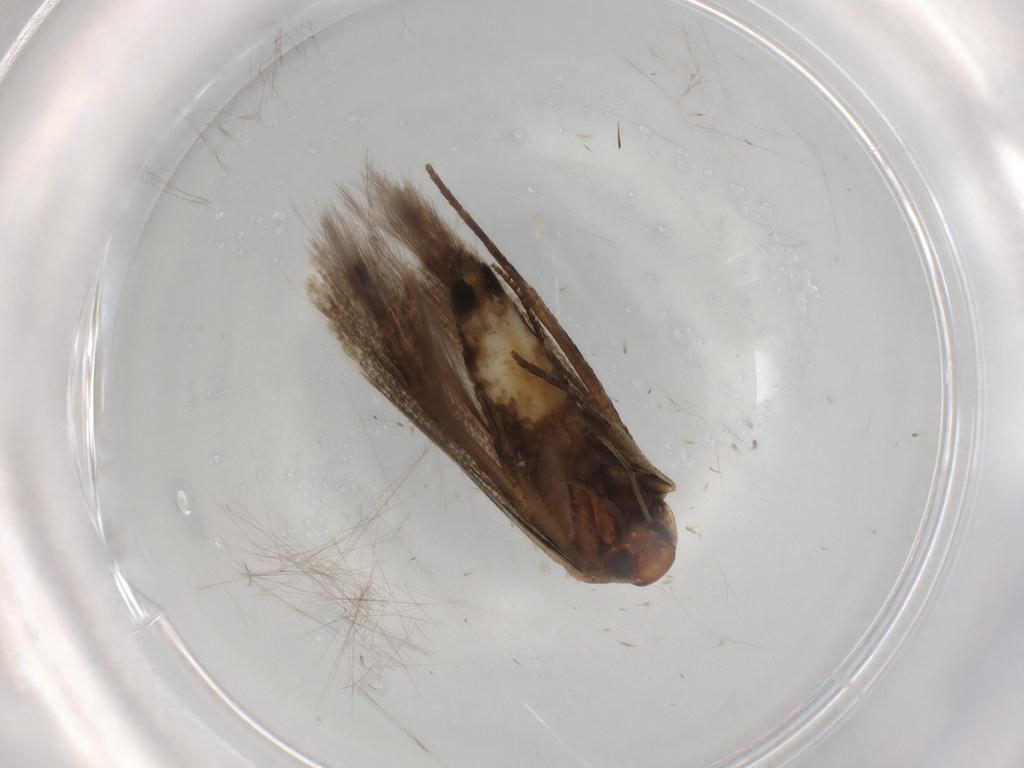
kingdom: Animalia
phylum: Arthropoda
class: Insecta
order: Lepidoptera
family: Cosmopterigidae
